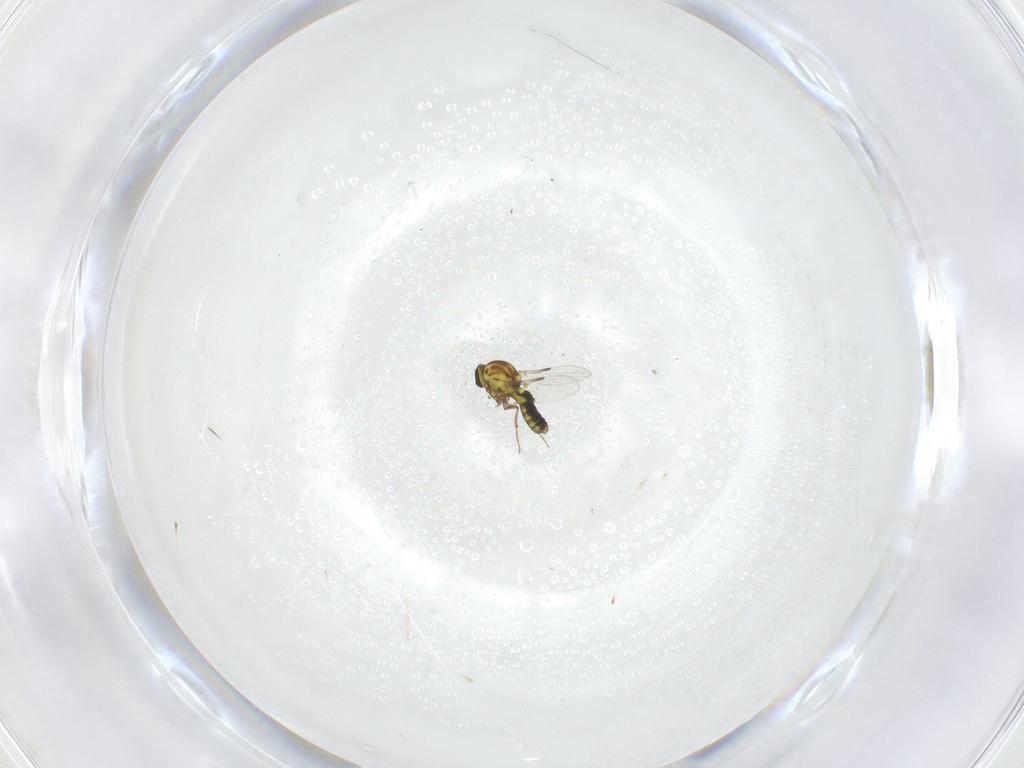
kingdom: Animalia
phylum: Arthropoda
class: Insecta
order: Diptera
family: Ceratopogonidae
